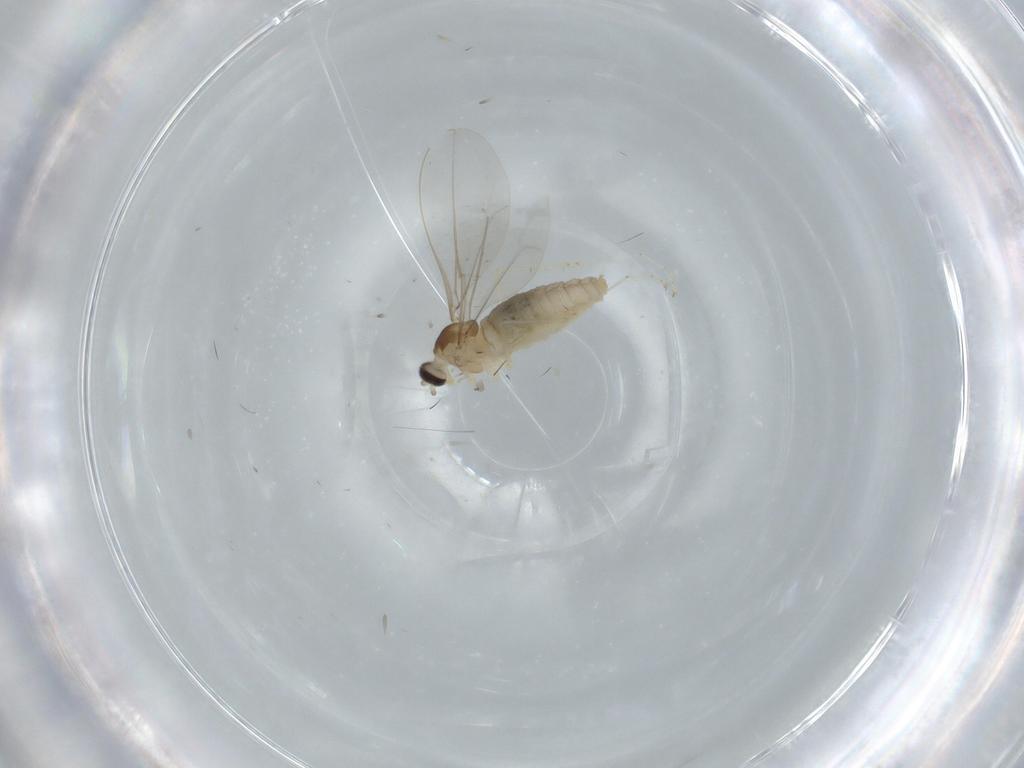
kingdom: Animalia
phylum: Arthropoda
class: Insecta
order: Diptera
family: Cecidomyiidae
